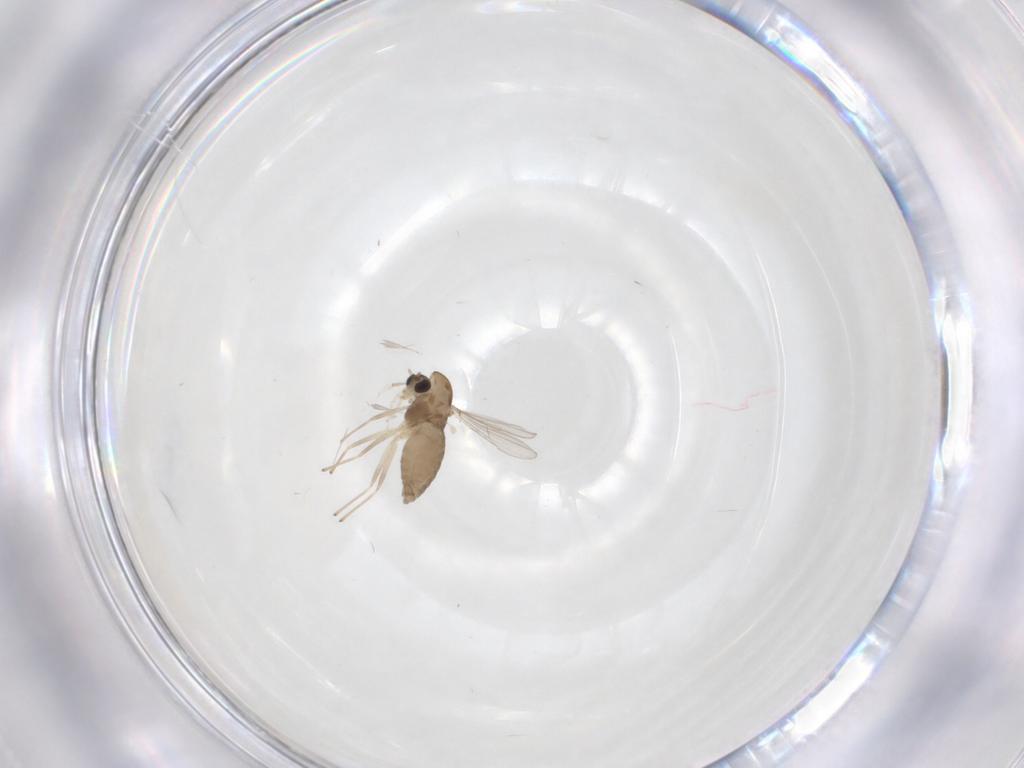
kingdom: Animalia
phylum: Arthropoda
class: Insecta
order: Diptera
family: Chironomidae
